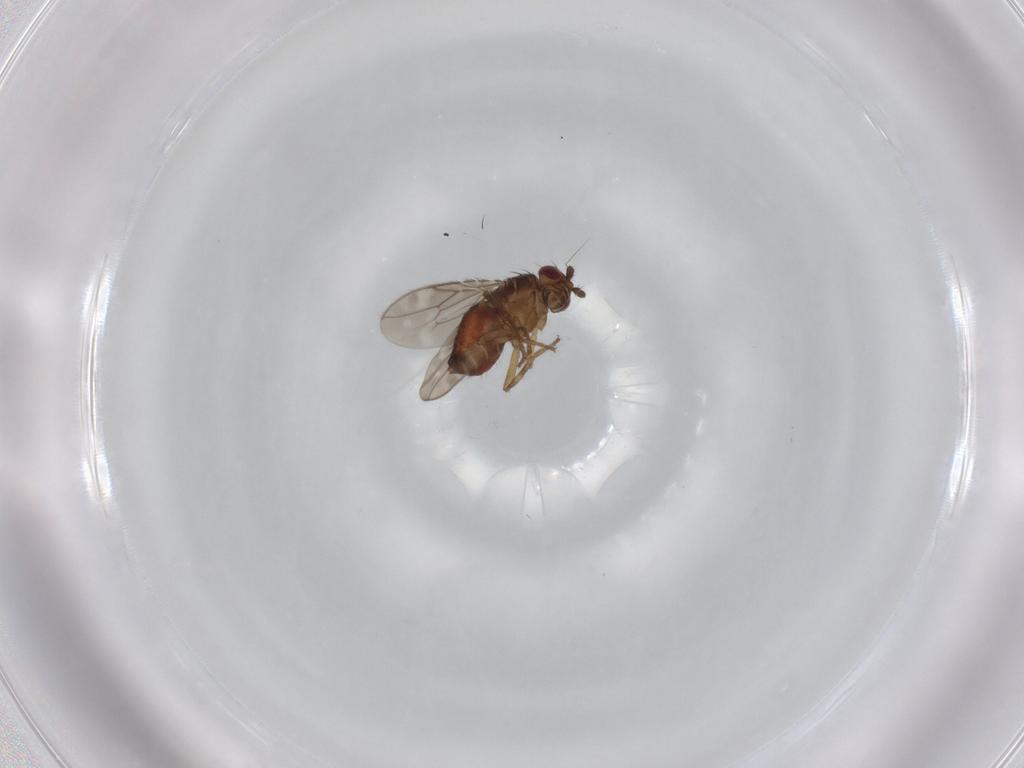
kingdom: Animalia
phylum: Arthropoda
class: Insecta
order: Diptera
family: Sphaeroceridae
